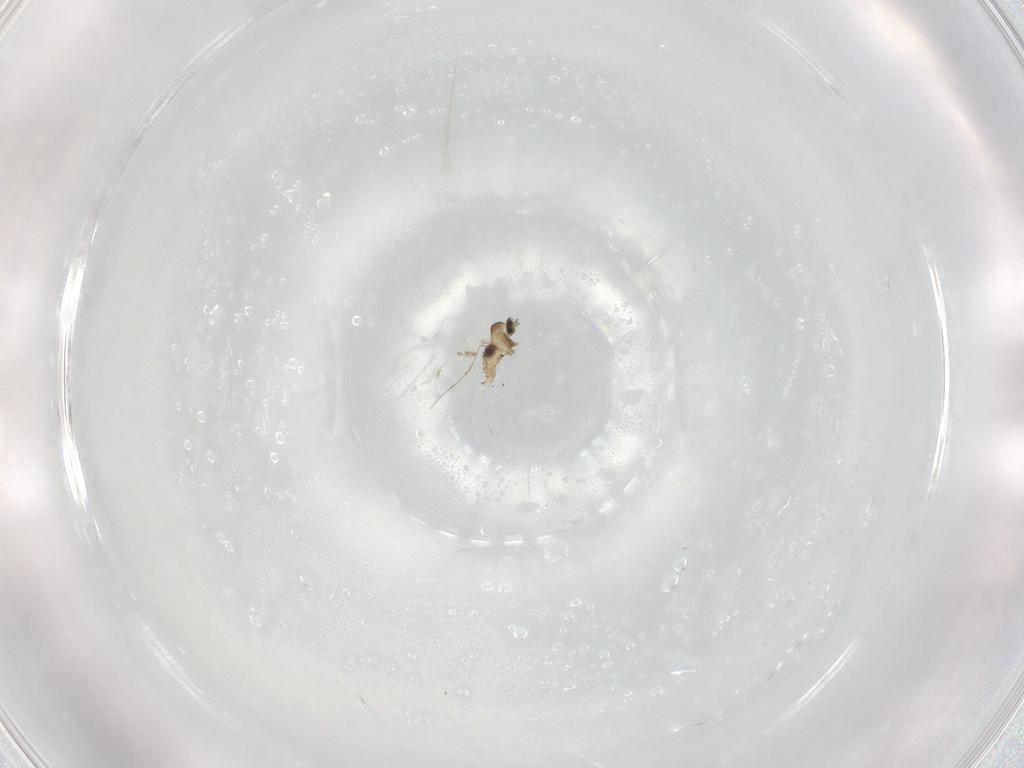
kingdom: Animalia
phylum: Arthropoda
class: Insecta
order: Diptera
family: Cecidomyiidae
